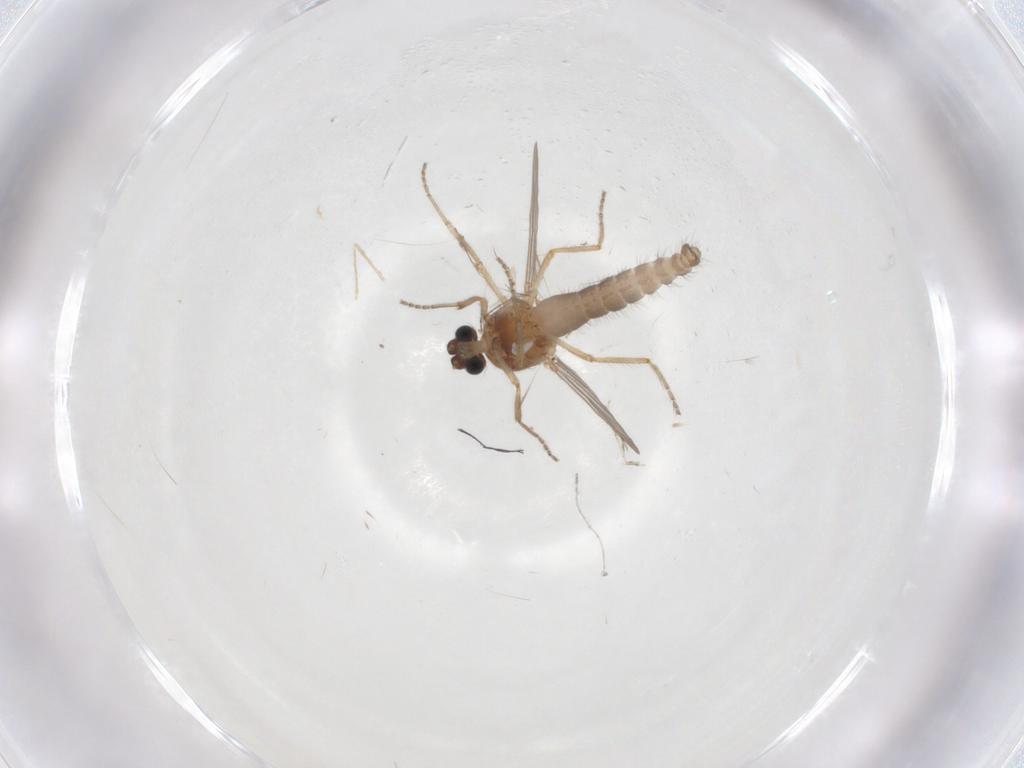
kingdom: Animalia
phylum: Arthropoda
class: Insecta
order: Diptera
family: Ceratopogonidae
